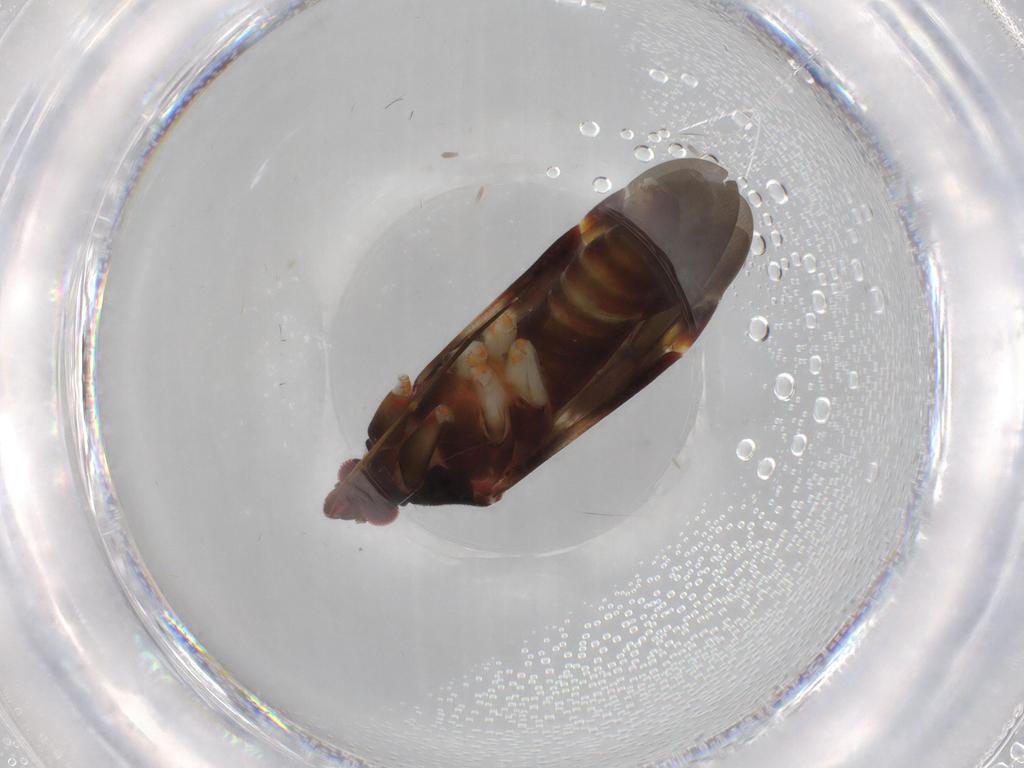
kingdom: Animalia
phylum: Arthropoda
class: Insecta
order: Hemiptera
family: Miridae
